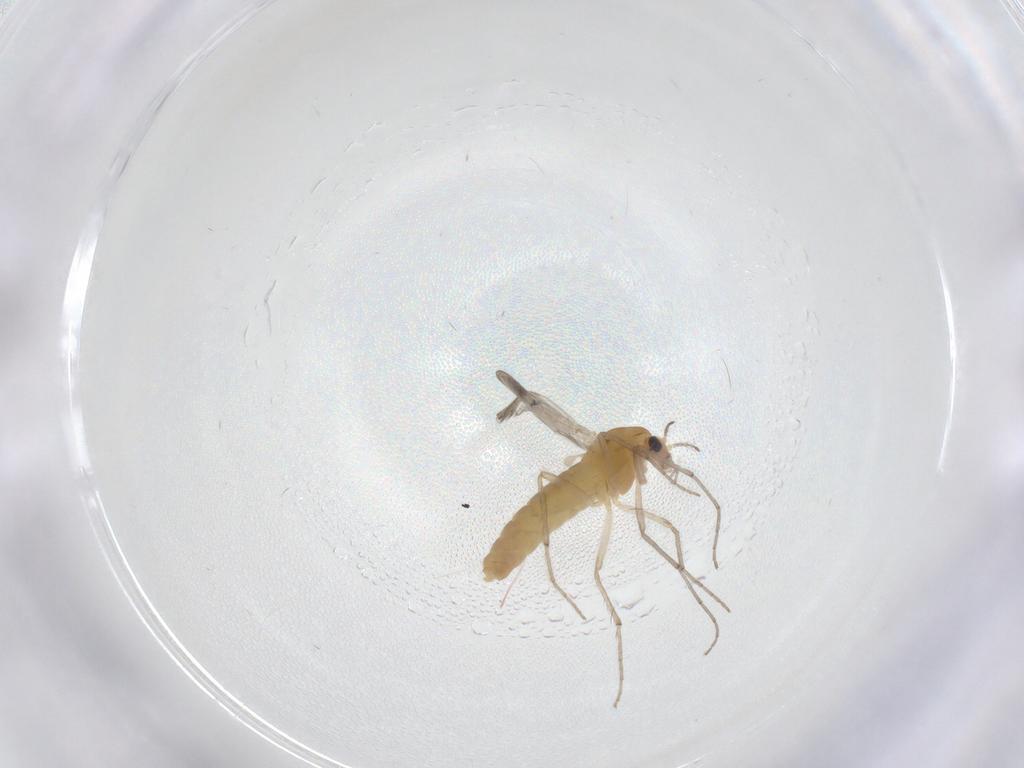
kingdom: Animalia
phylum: Arthropoda
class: Insecta
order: Diptera
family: Chironomidae
